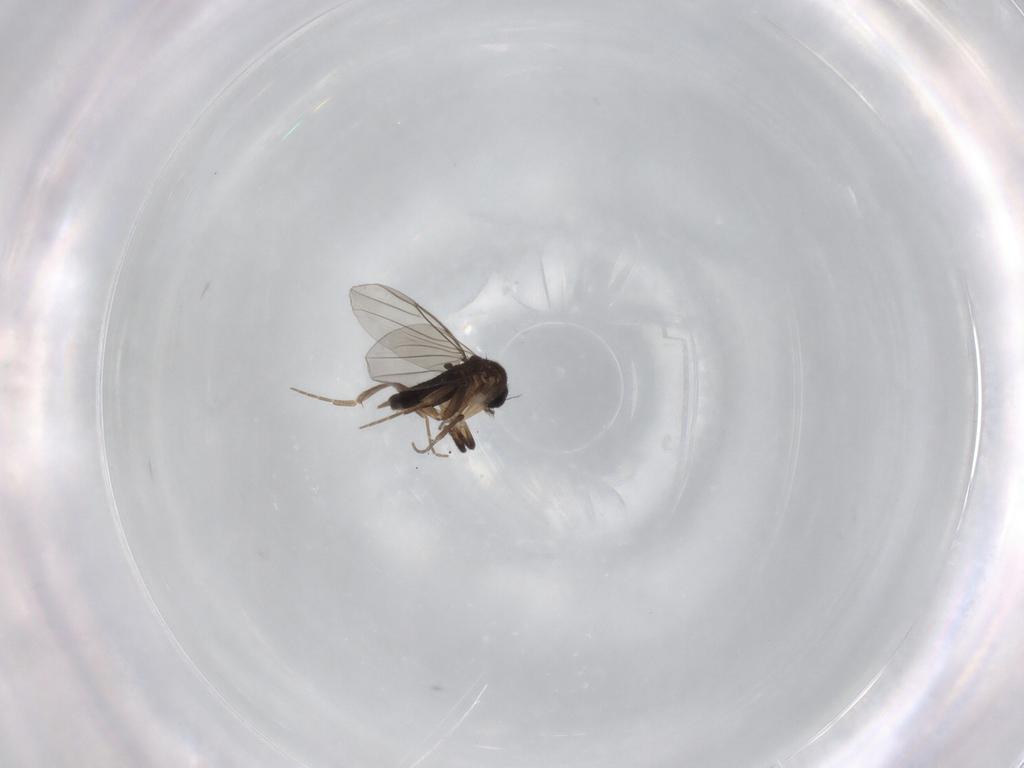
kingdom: Animalia
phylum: Arthropoda
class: Insecta
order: Diptera
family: Phoridae
